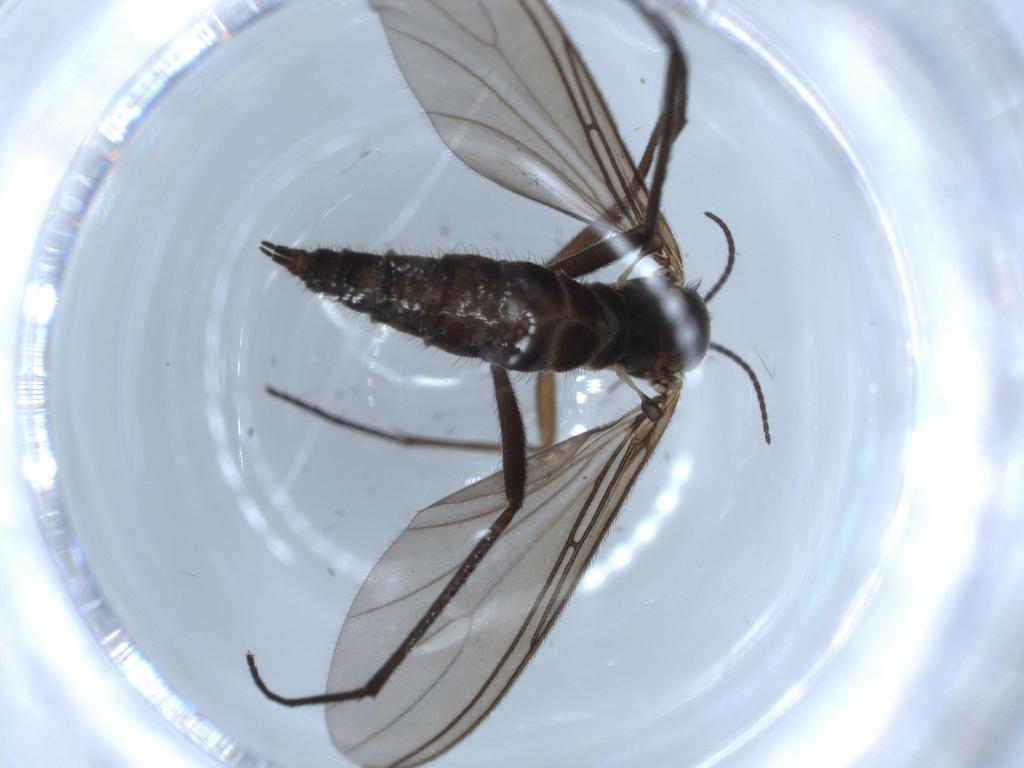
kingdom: Animalia
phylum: Arthropoda
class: Insecta
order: Diptera
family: Sciaridae
